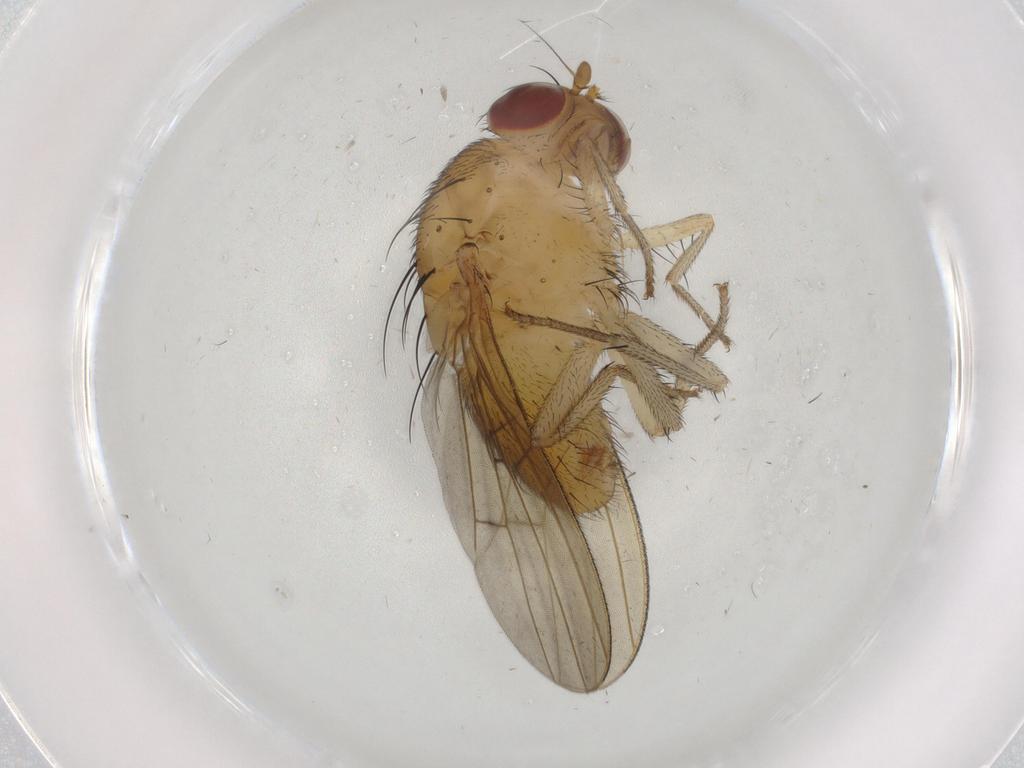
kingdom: Animalia
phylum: Arthropoda
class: Insecta
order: Diptera
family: Lauxaniidae
